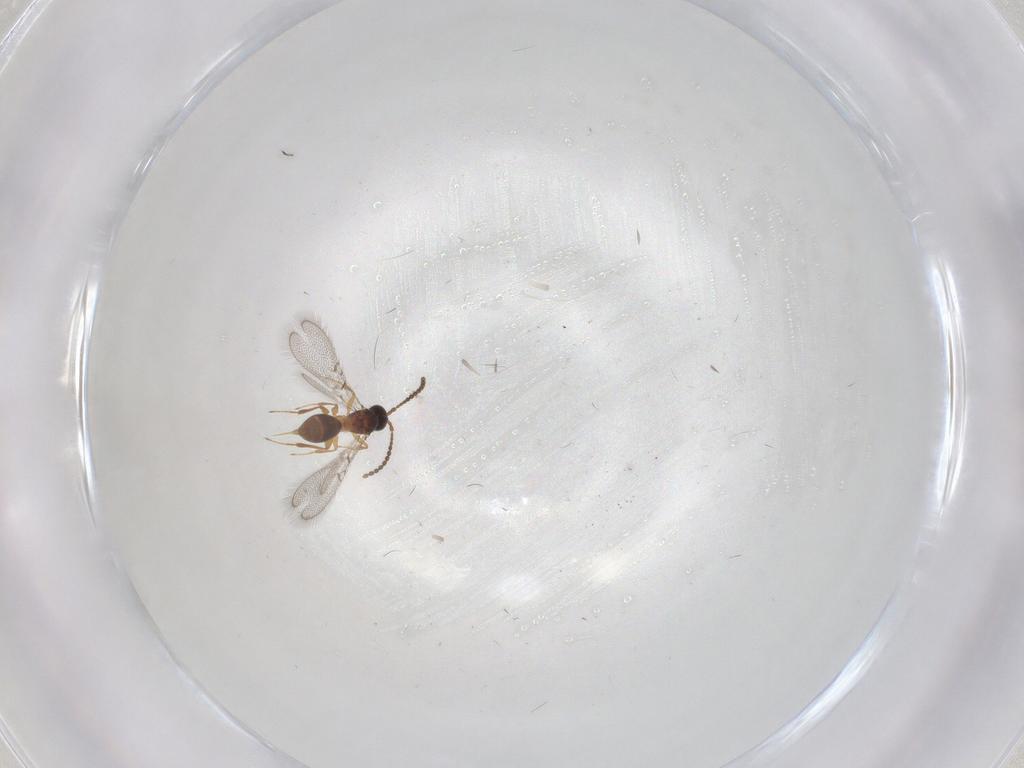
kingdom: Animalia
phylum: Arthropoda
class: Insecta
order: Hymenoptera
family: Figitidae
